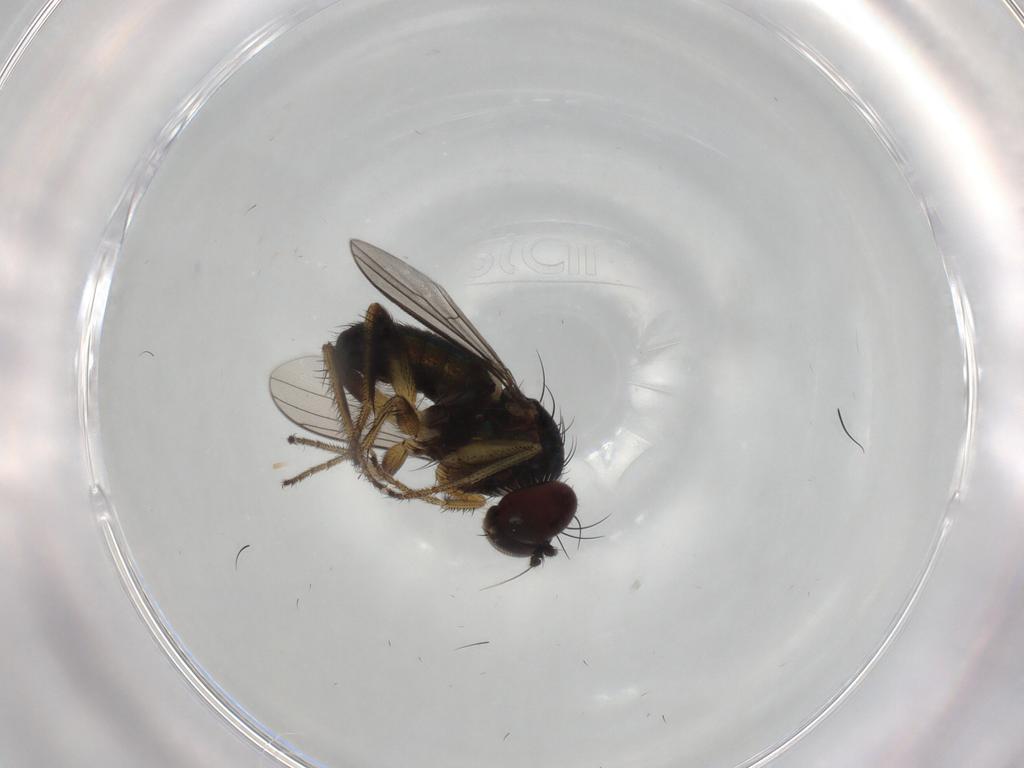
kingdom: Animalia
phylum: Arthropoda
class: Insecta
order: Diptera
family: Dolichopodidae
